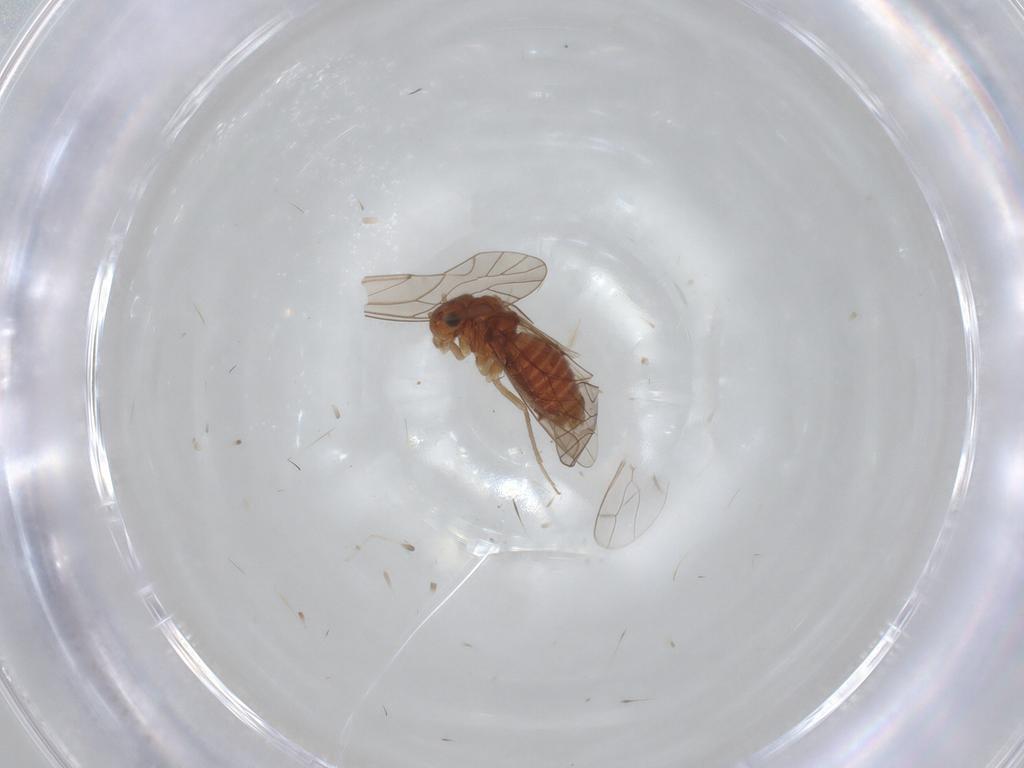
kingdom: Animalia
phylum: Arthropoda
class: Insecta
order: Psocodea
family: Lachesillidae
